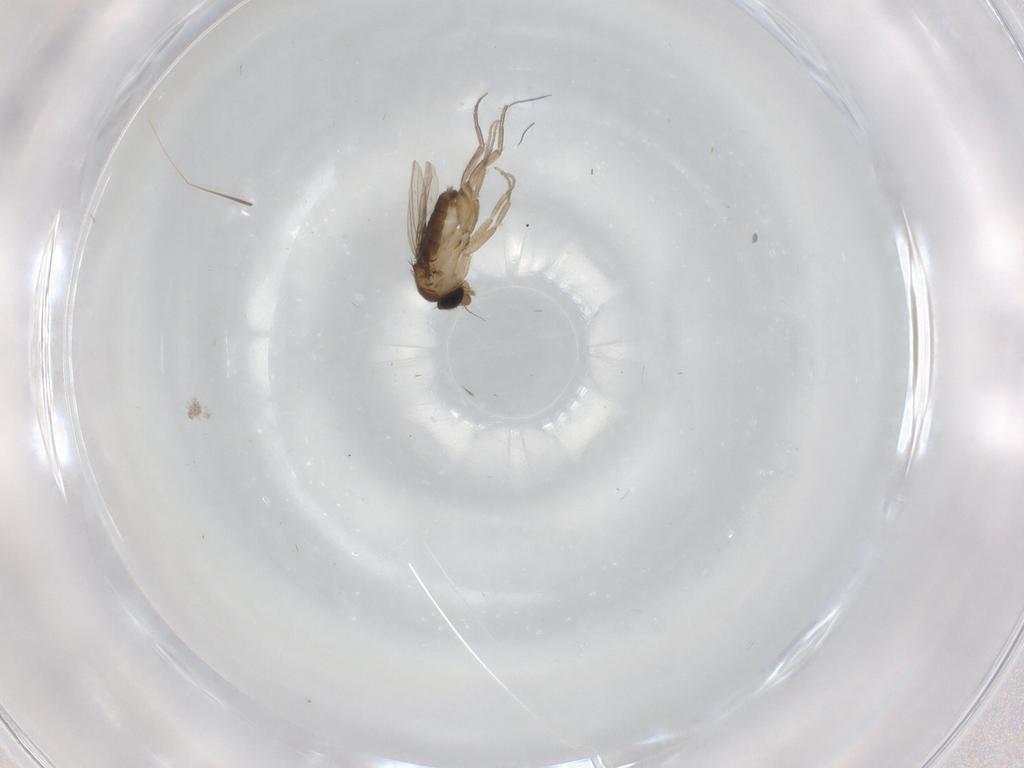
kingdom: Animalia
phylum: Arthropoda
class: Insecta
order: Diptera
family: Phoridae
